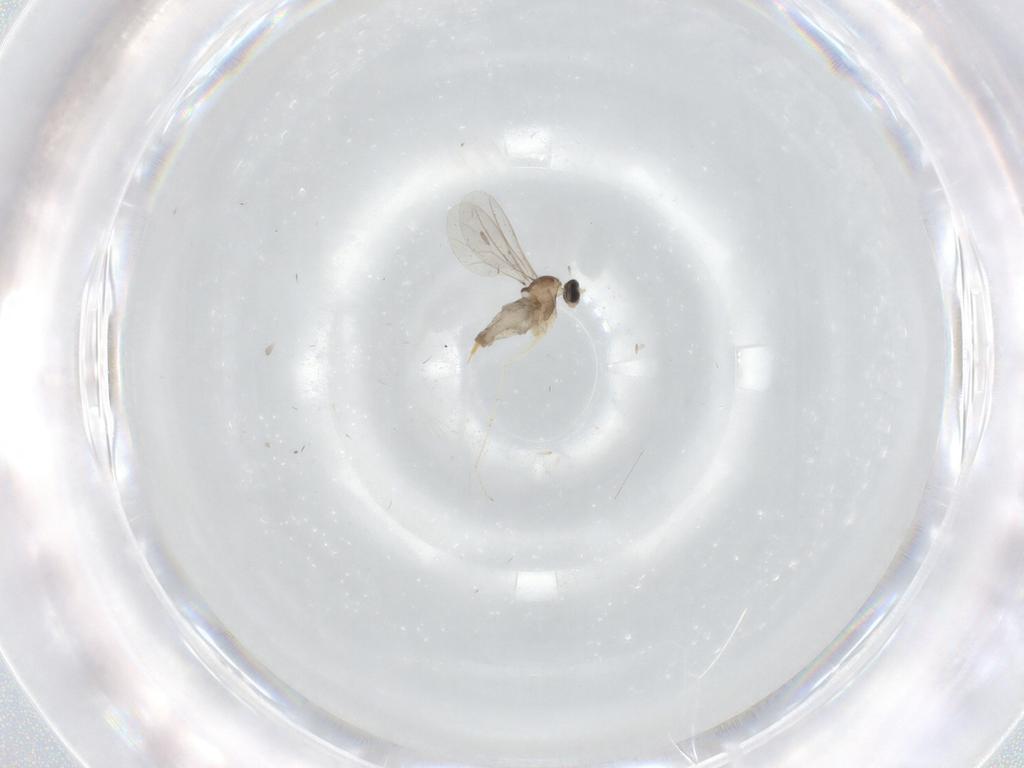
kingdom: Animalia
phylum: Arthropoda
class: Insecta
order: Diptera
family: Cecidomyiidae
